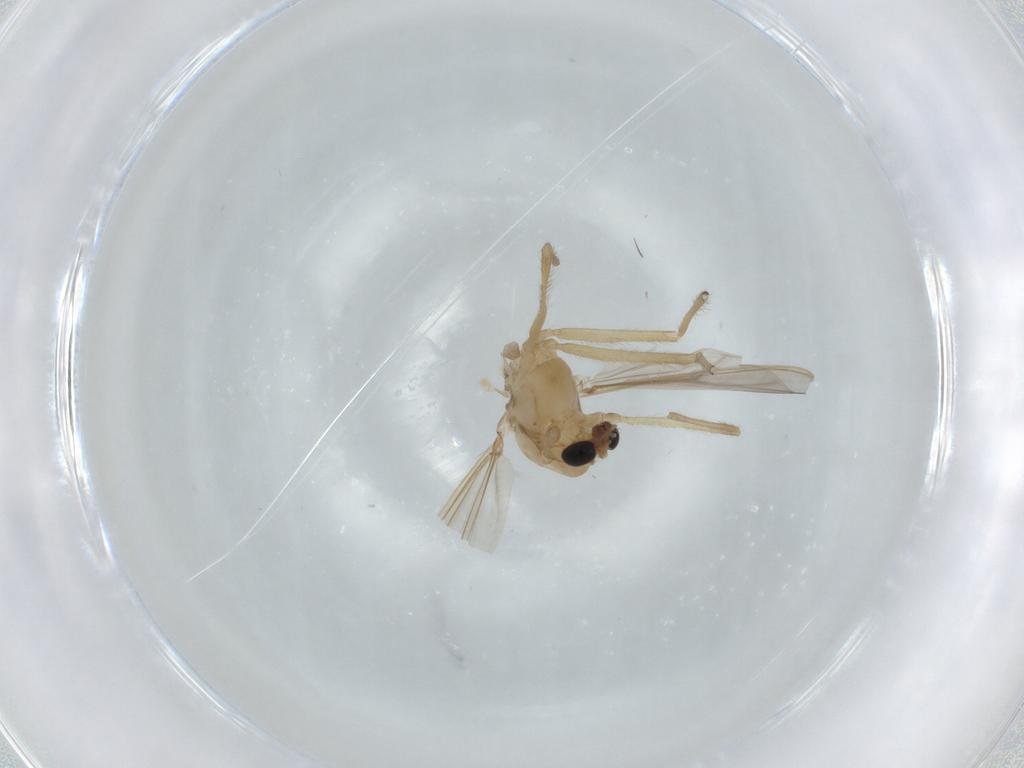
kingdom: Animalia
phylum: Arthropoda
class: Insecta
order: Diptera
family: Chironomidae
